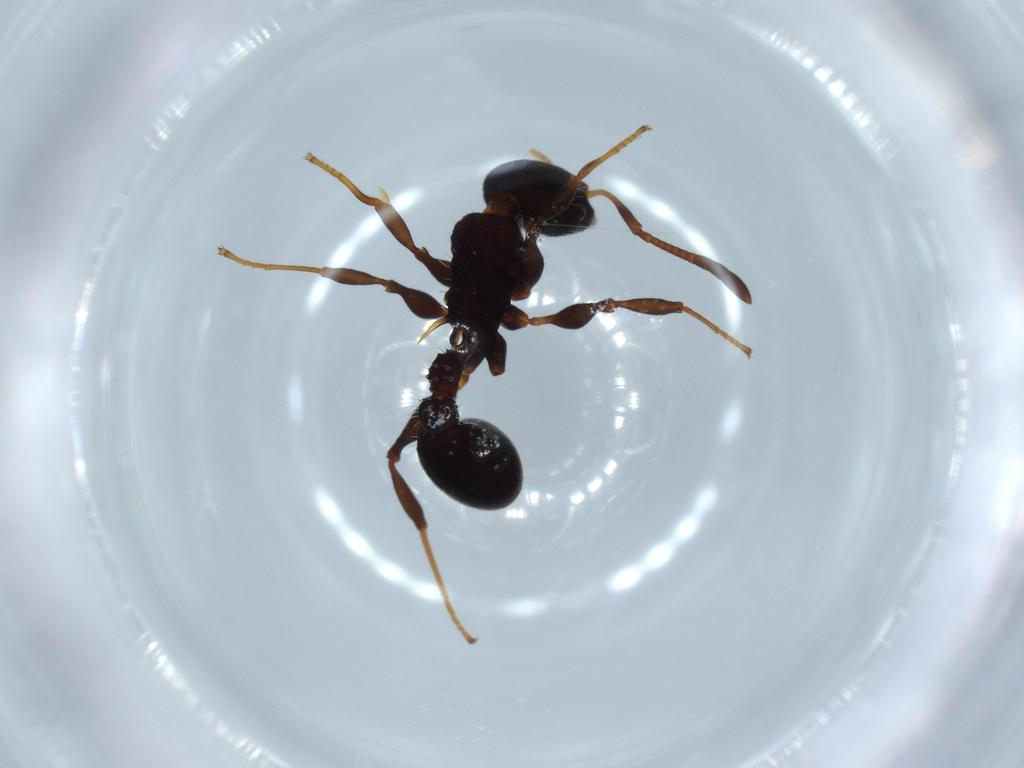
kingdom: Animalia
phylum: Arthropoda
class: Insecta
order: Hymenoptera
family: Formicidae
